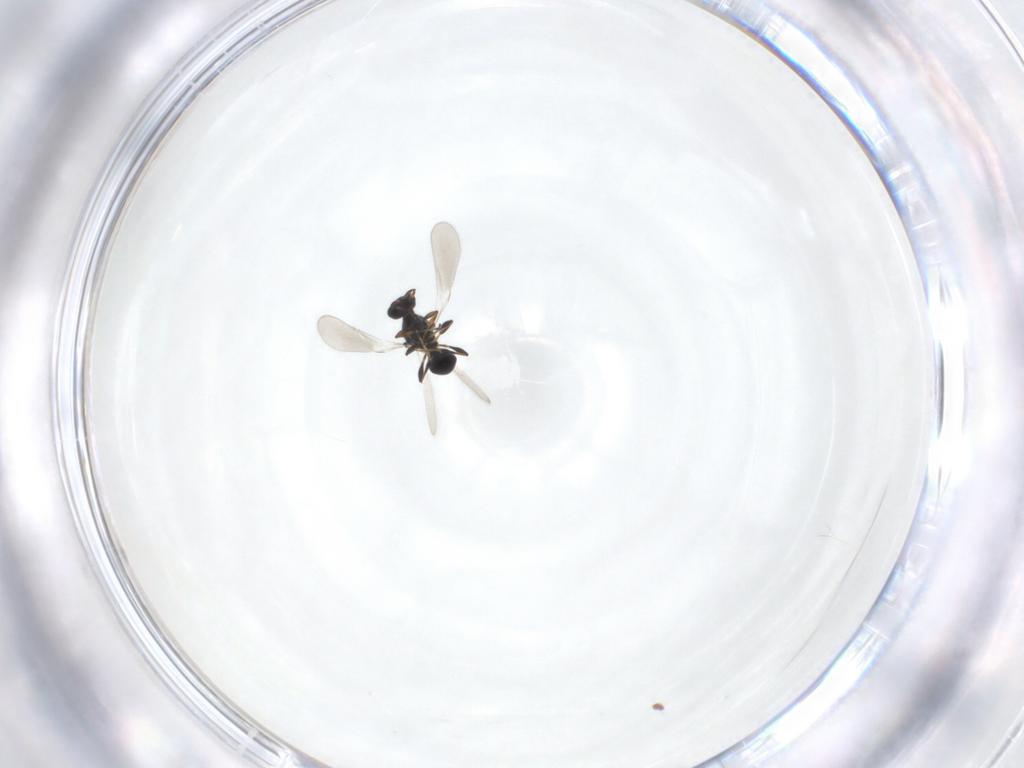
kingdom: Animalia
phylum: Arthropoda
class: Insecta
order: Hymenoptera
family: Platygastridae
